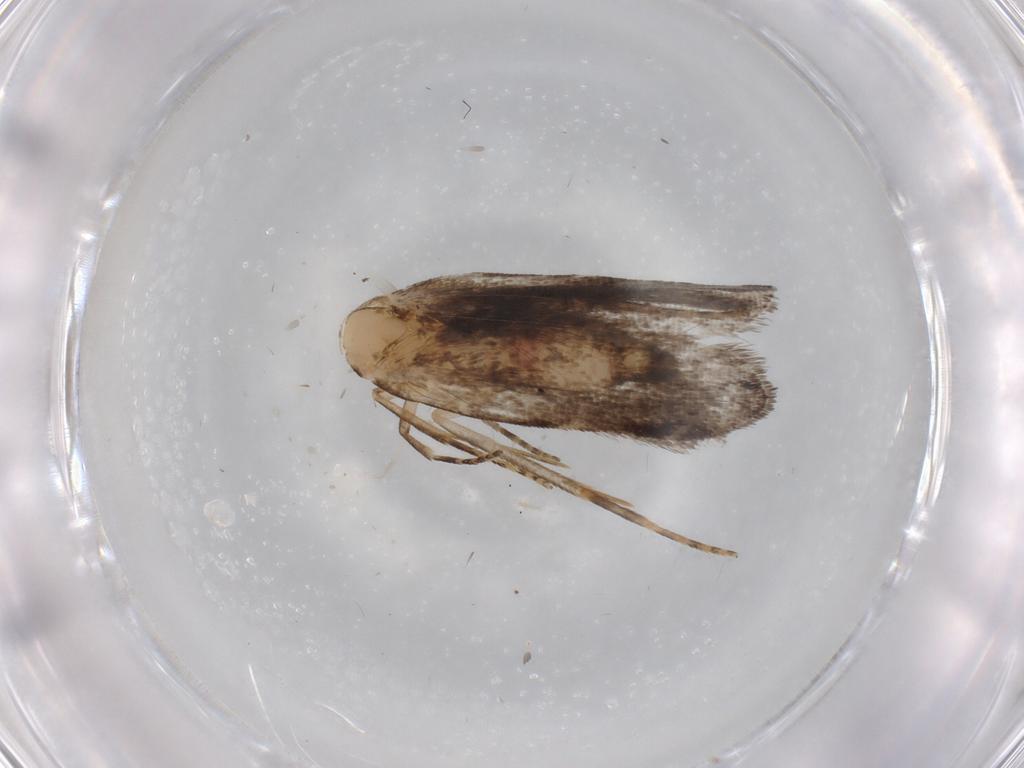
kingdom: Animalia
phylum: Arthropoda
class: Insecta
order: Lepidoptera
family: Gelechiidae
